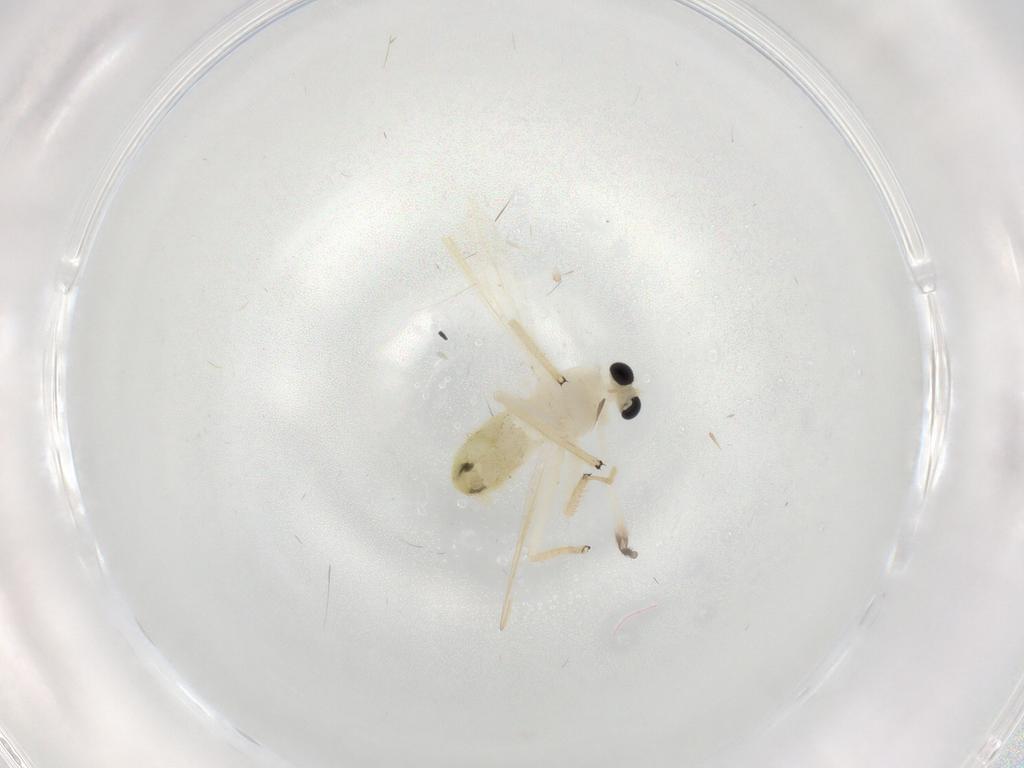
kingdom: Animalia
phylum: Arthropoda
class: Insecta
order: Diptera
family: Chironomidae
